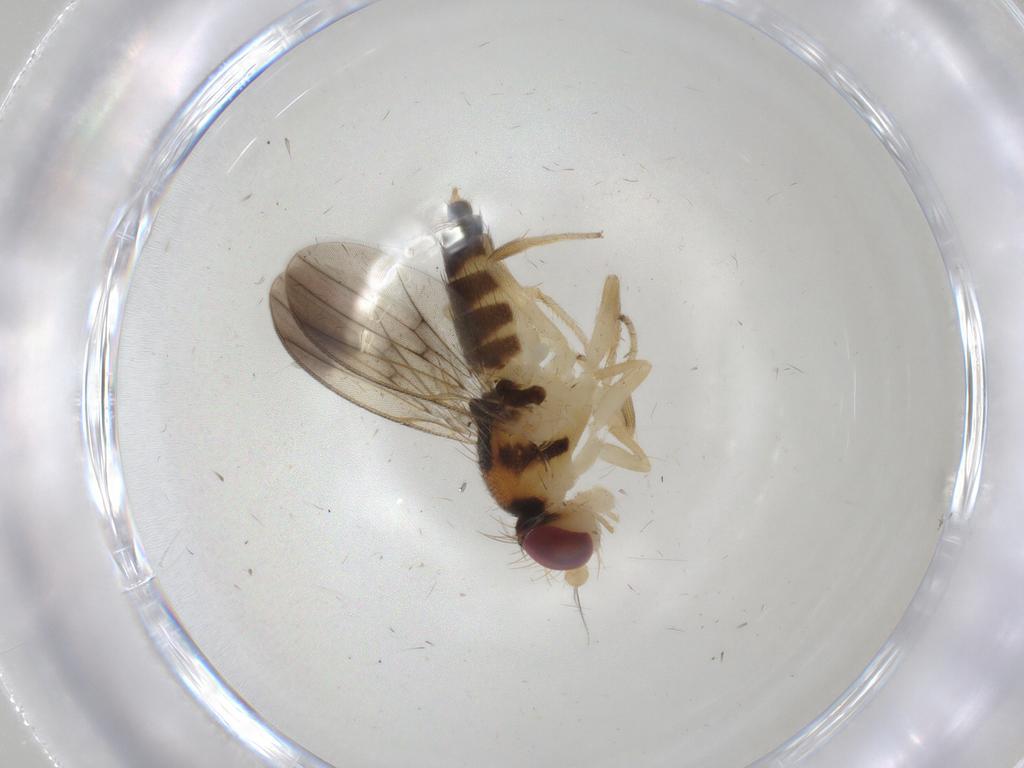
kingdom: Animalia
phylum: Arthropoda
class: Insecta
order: Diptera
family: Clusiidae
